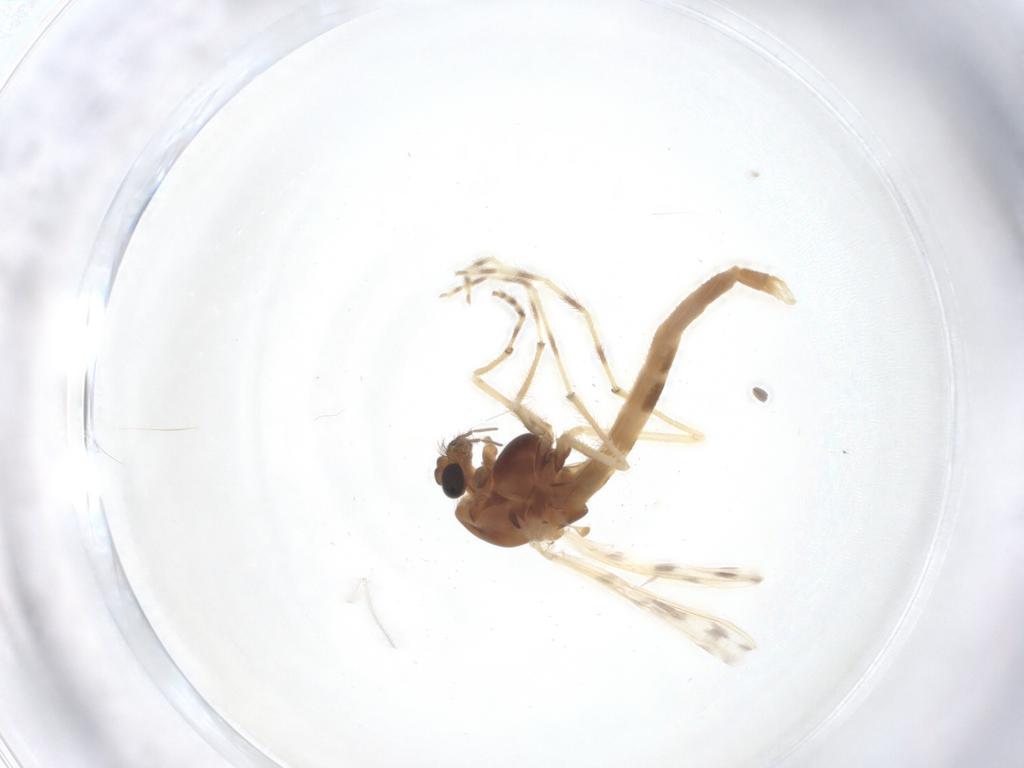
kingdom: Animalia
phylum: Arthropoda
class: Insecta
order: Diptera
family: Chironomidae
